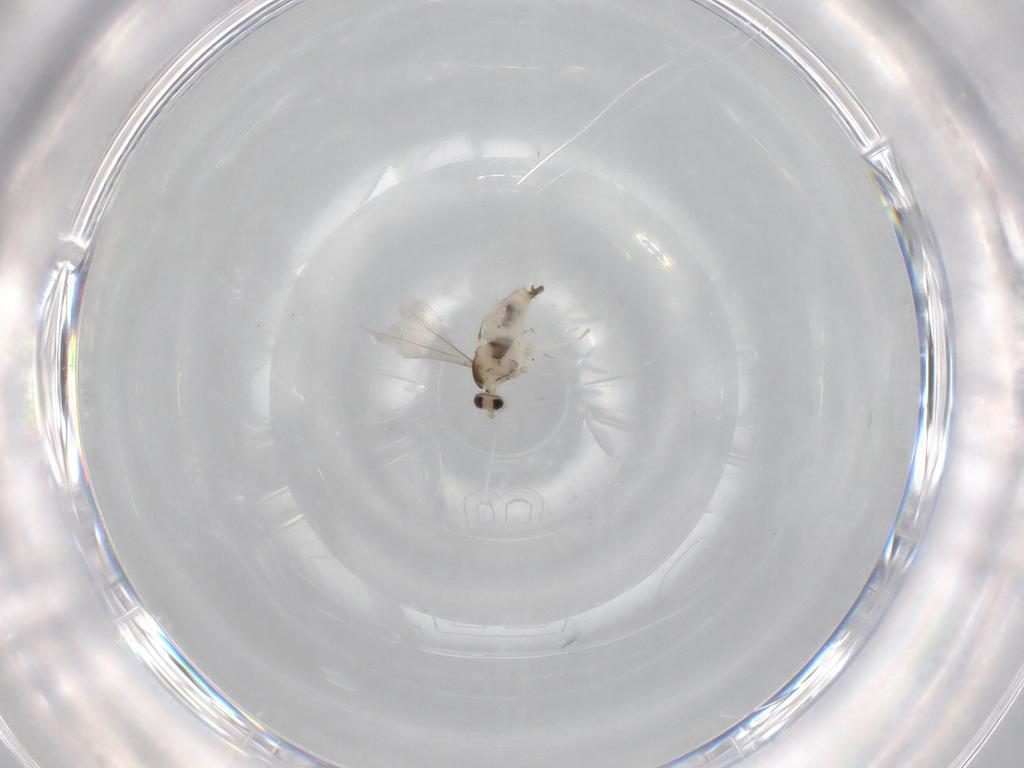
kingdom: Animalia
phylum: Arthropoda
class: Insecta
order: Diptera
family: Cecidomyiidae
